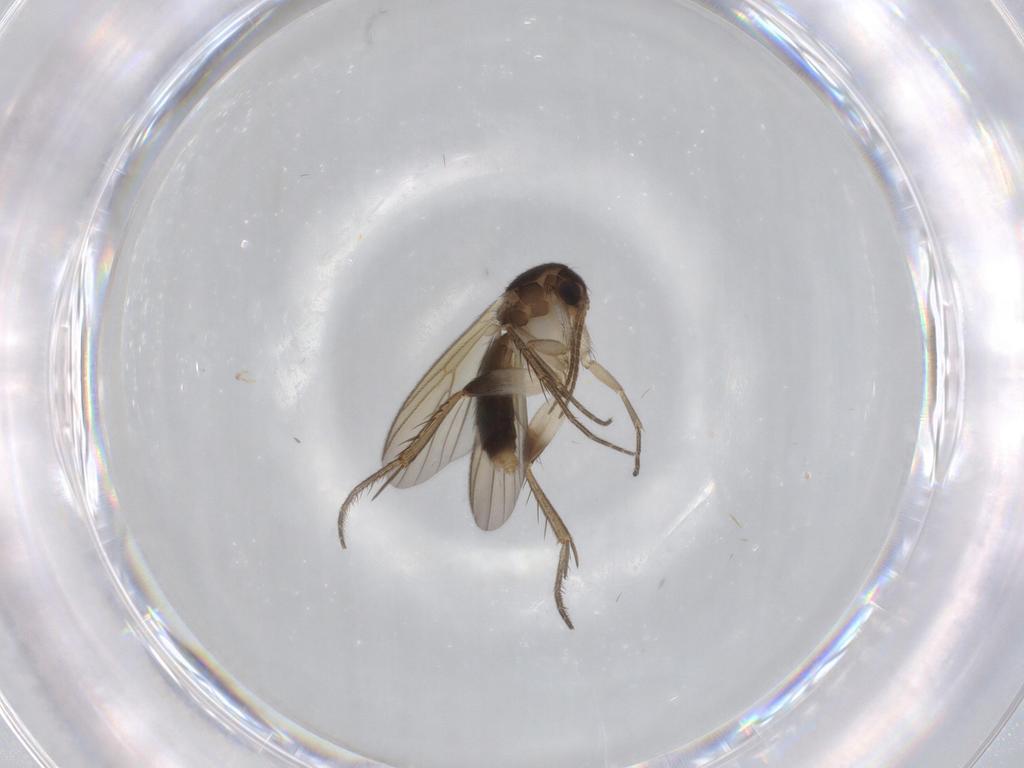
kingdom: Animalia
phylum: Arthropoda
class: Insecta
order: Diptera
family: Mycetophilidae
